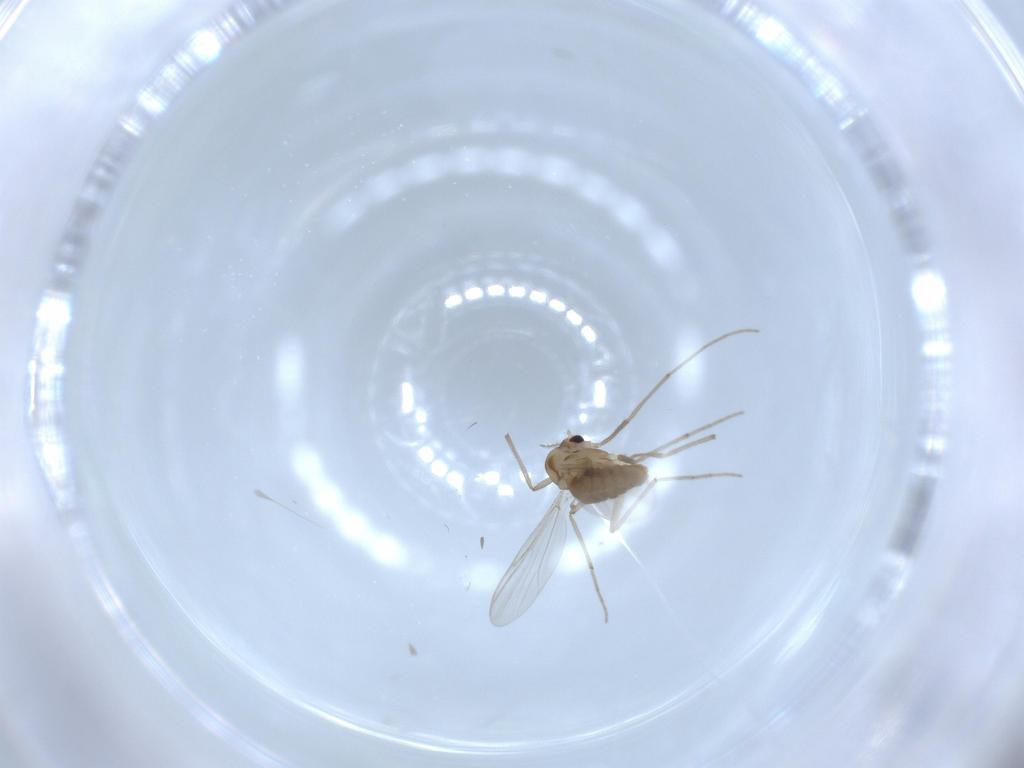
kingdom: Animalia
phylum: Arthropoda
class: Insecta
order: Diptera
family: Chironomidae
